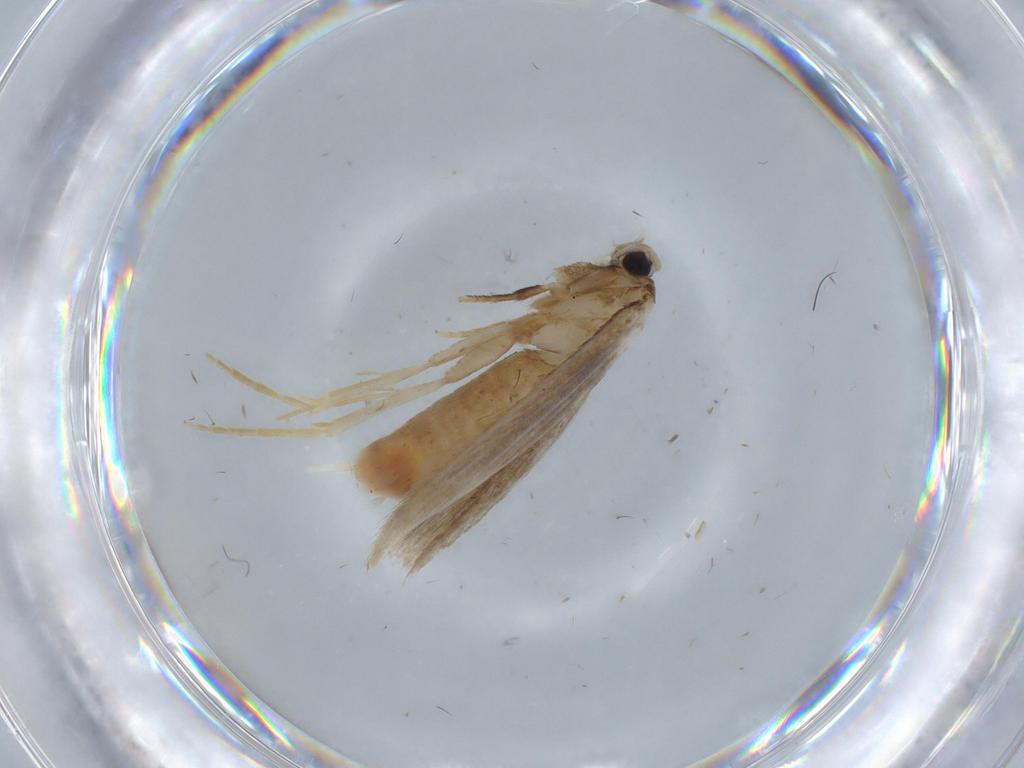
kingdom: Animalia
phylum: Arthropoda
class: Insecta
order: Lepidoptera
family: Coleophoridae
